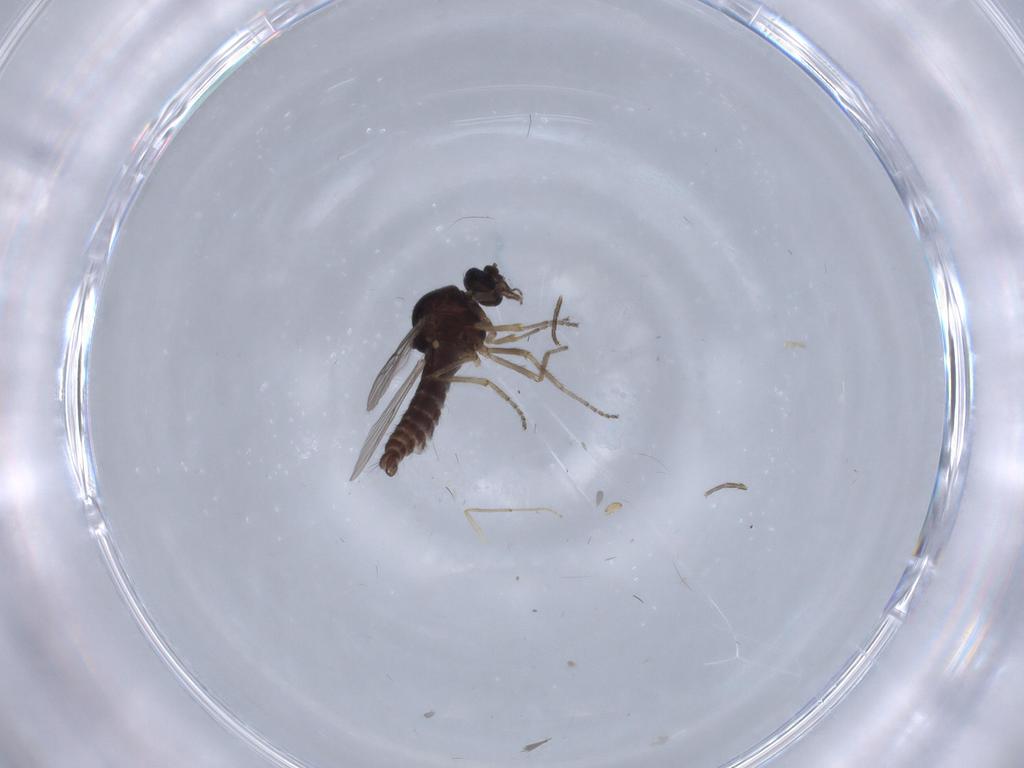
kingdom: Animalia
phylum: Arthropoda
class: Insecta
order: Diptera
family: Ceratopogonidae
